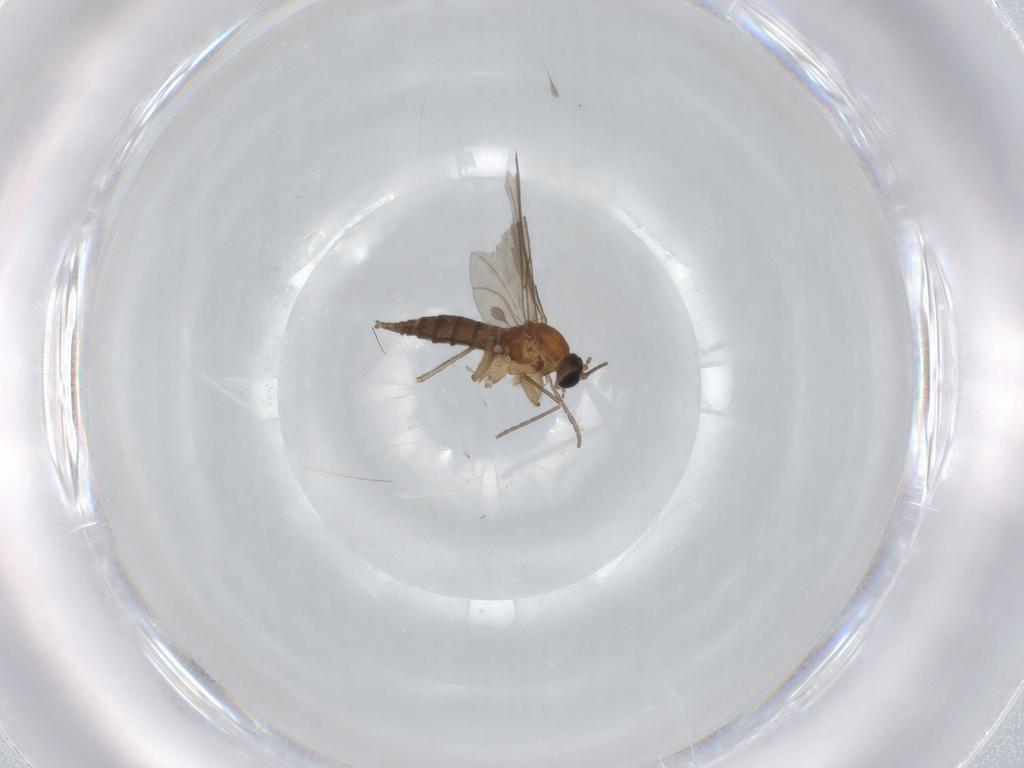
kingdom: Animalia
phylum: Arthropoda
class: Insecta
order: Diptera
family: Sciaridae
